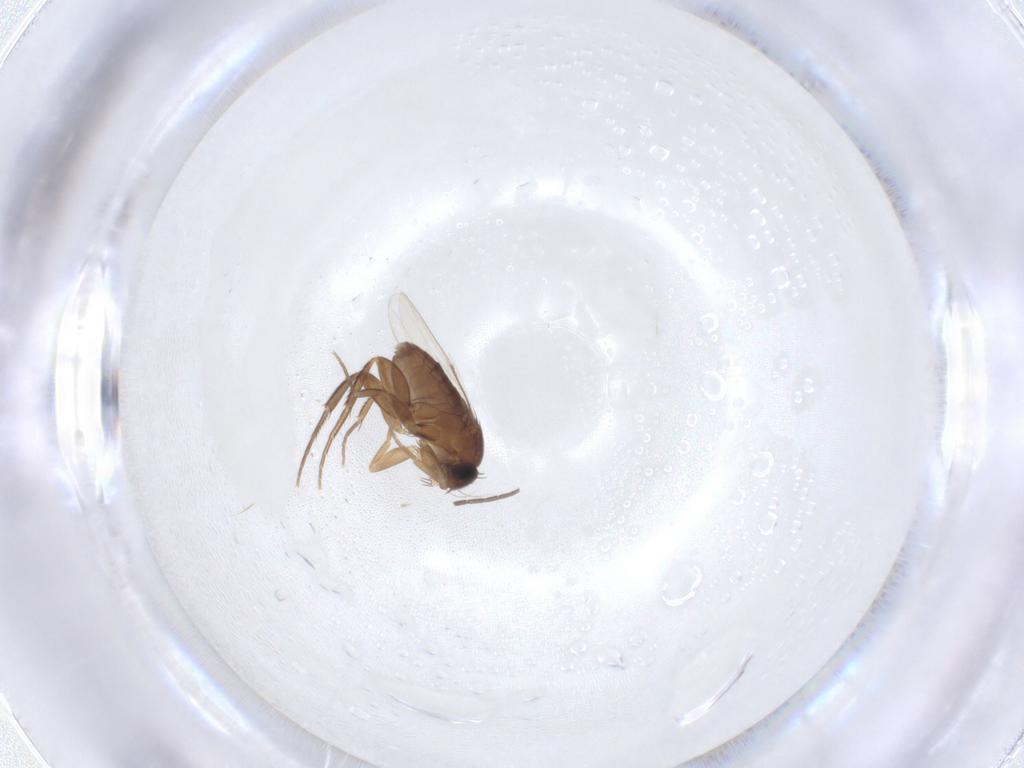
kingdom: Animalia
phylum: Arthropoda
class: Insecta
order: Diptera
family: Phoridae
